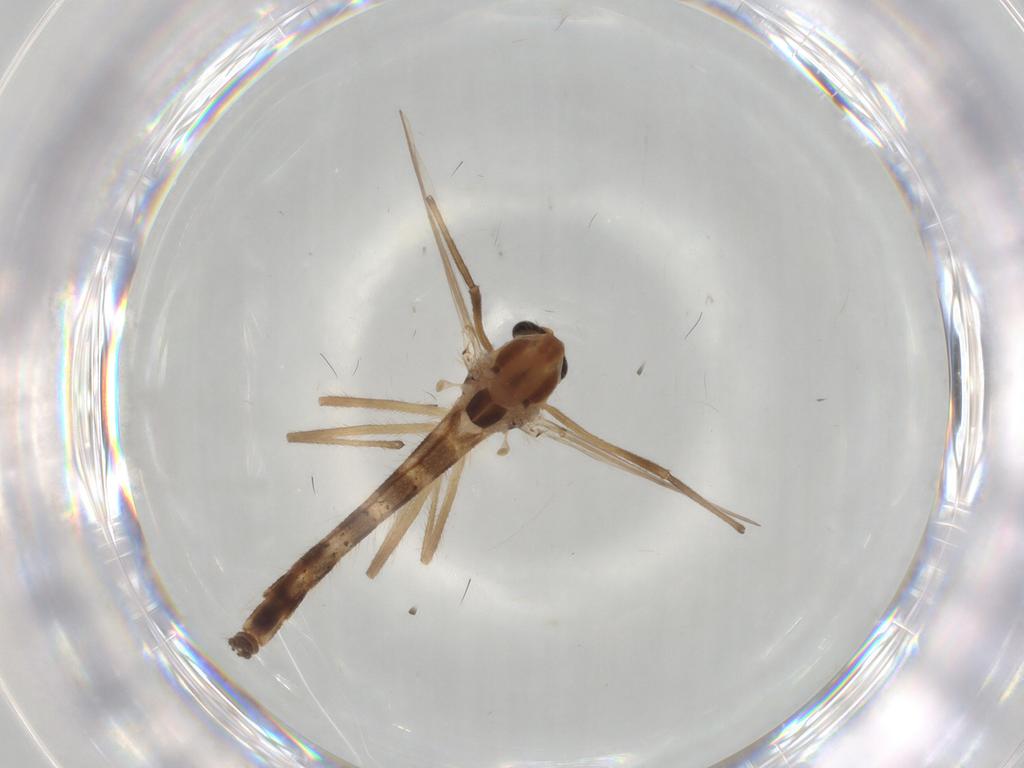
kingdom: Animalia
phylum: Arthropoda
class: Insecta
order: Diptera
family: Chironomidae
